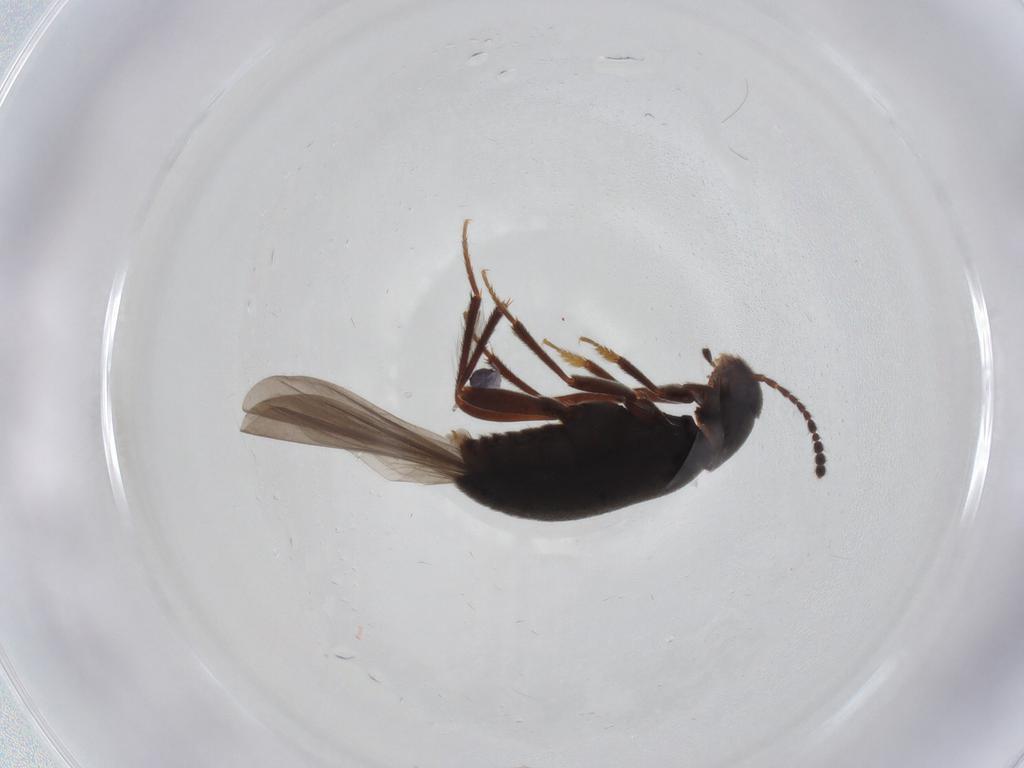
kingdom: Animalia
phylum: Arthropoda
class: Insecta
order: Coleoptera
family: Leiodidae
